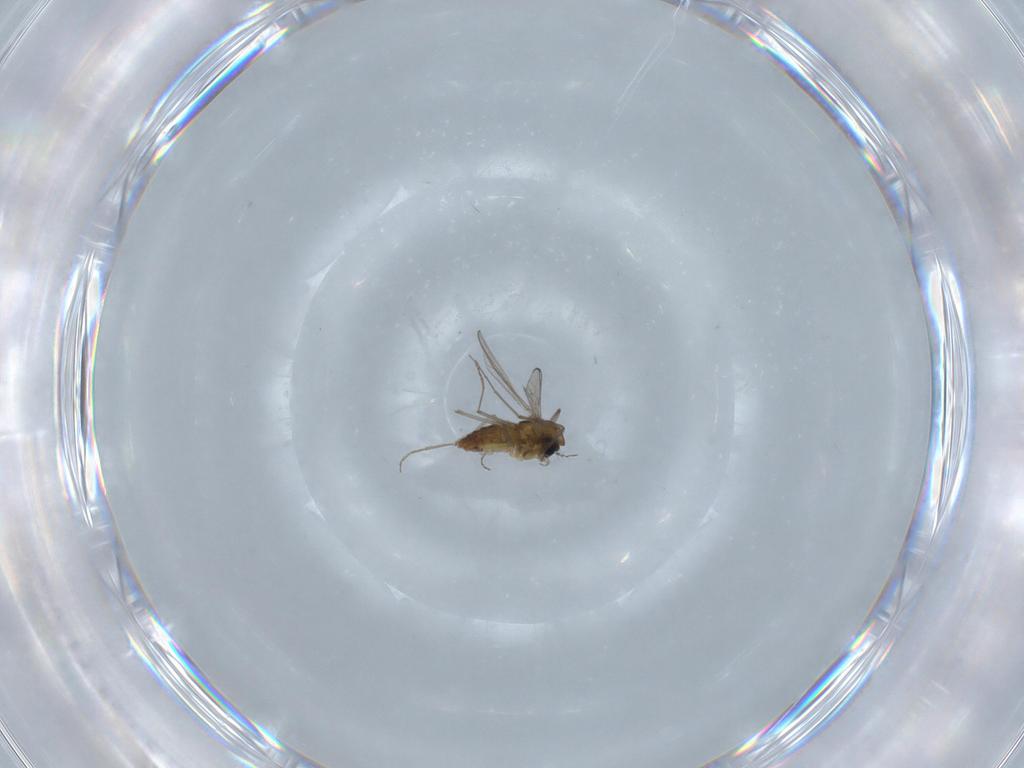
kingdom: Animalia
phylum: Arthropoda
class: Insecta
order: Diptera
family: Chironomidae
